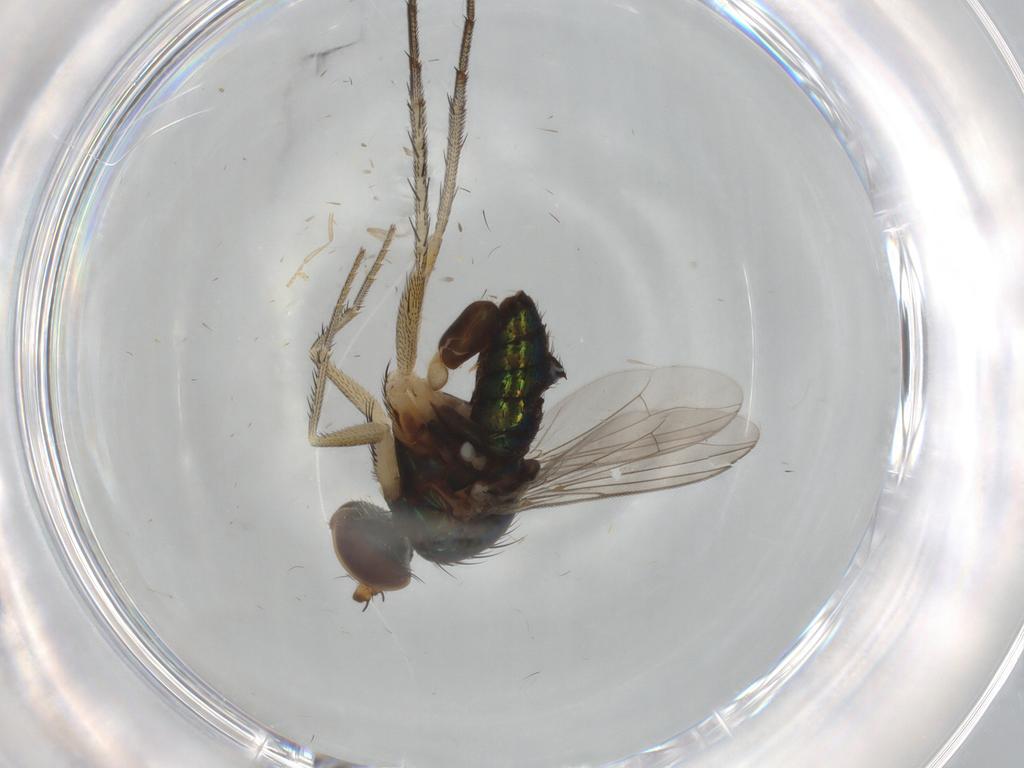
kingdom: Animalia
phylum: Arthropoda
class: Insecta
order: Diptera
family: Dolichopodidae
